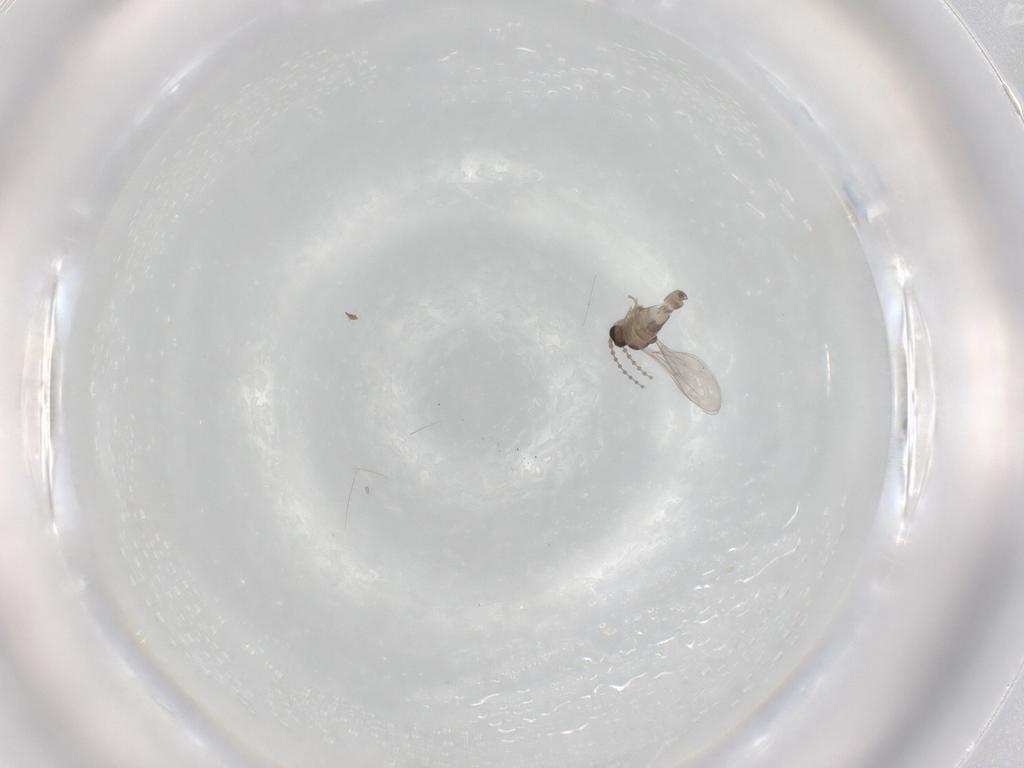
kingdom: Animalia
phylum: Arthropoda
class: Insecta
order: Diptera
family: Cecidomyiidae
